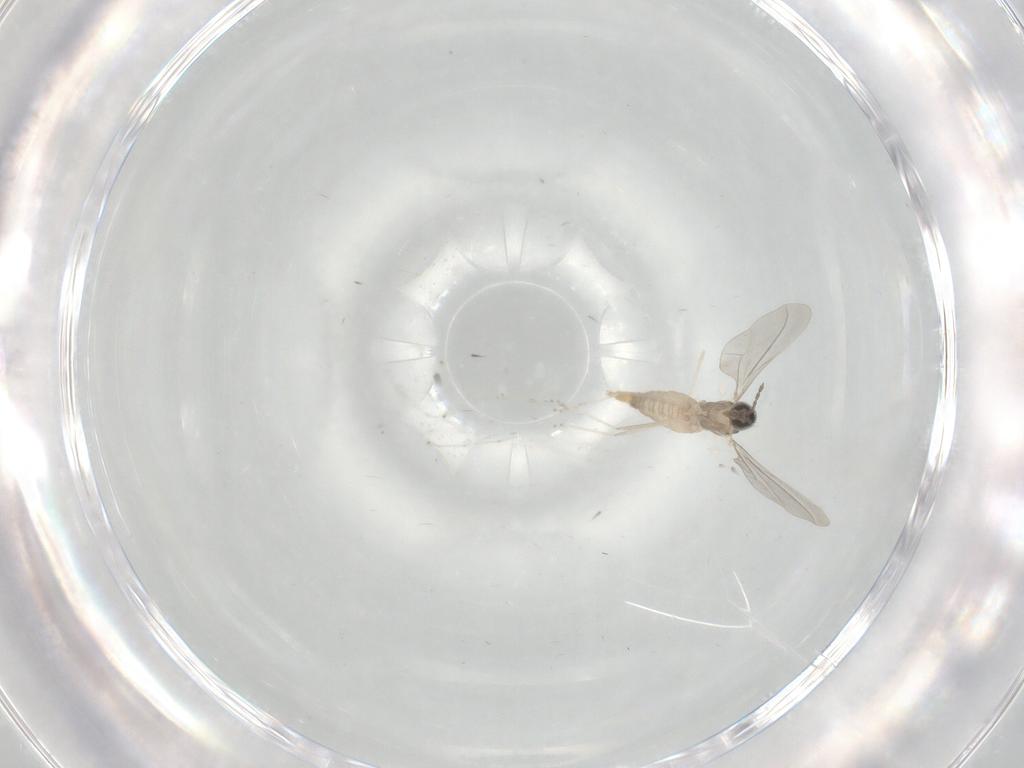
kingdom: Animalia
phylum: Arthropoda
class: Insecta
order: Diptera
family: Cecidomyiidae
